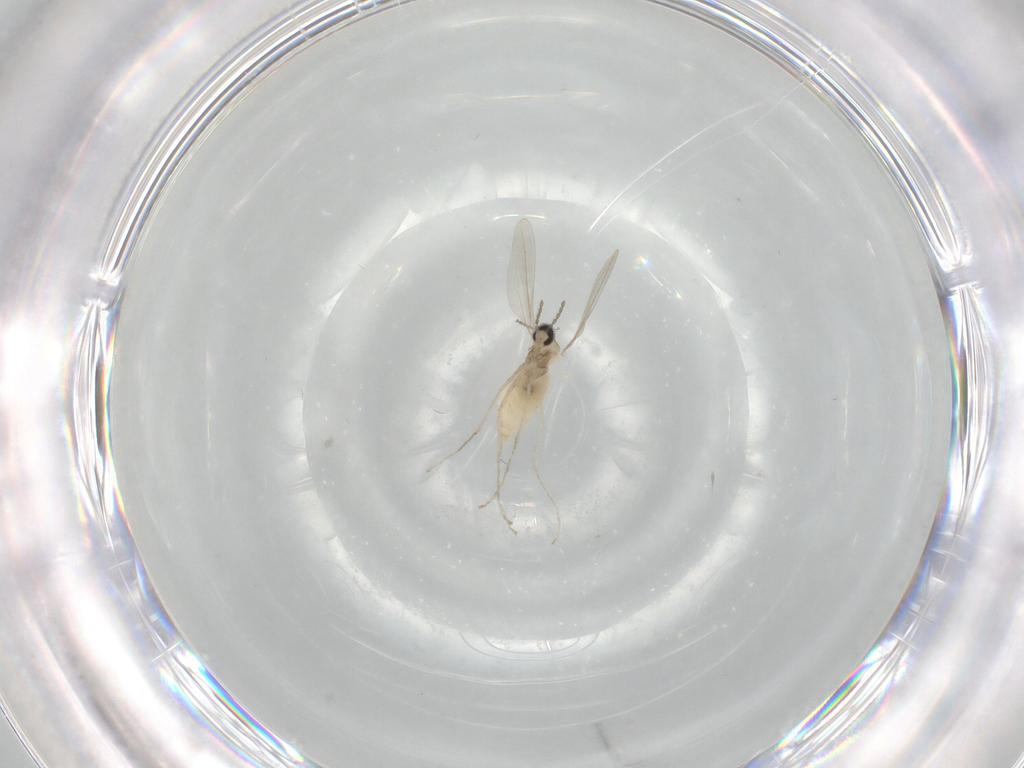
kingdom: Animalia
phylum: Arthropoda
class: Insecta
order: Diptera
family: Cecidomyiidae
